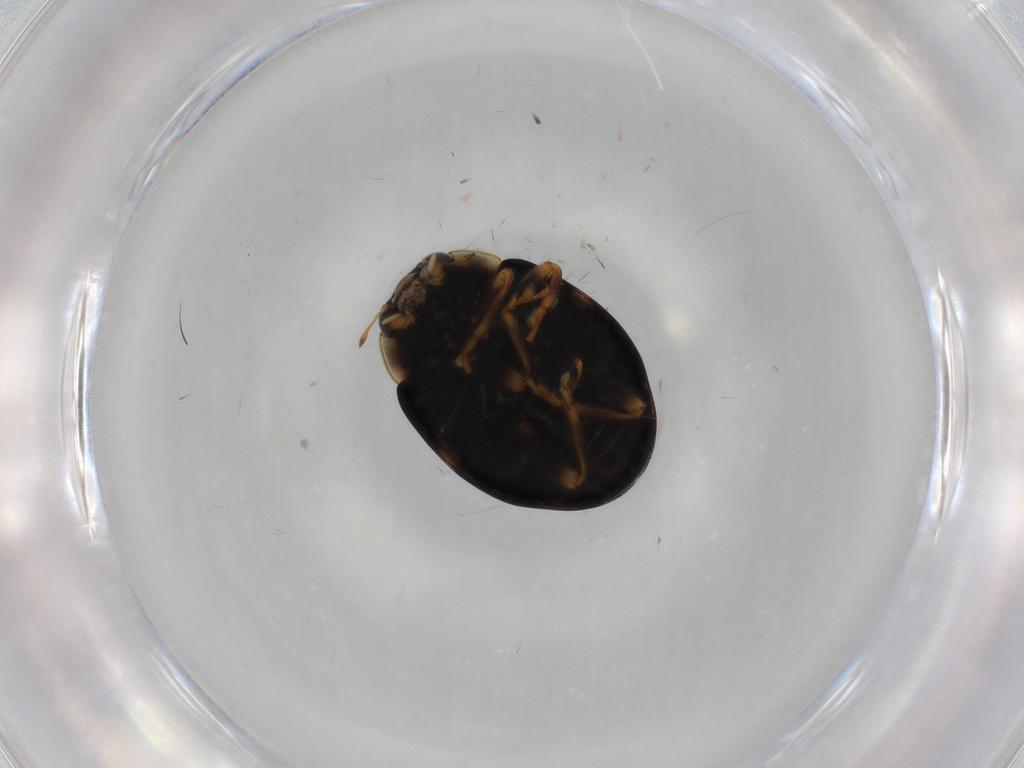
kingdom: Animalia
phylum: Arthropoda
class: Insecta
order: Coleoptera
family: Coccinellidae
